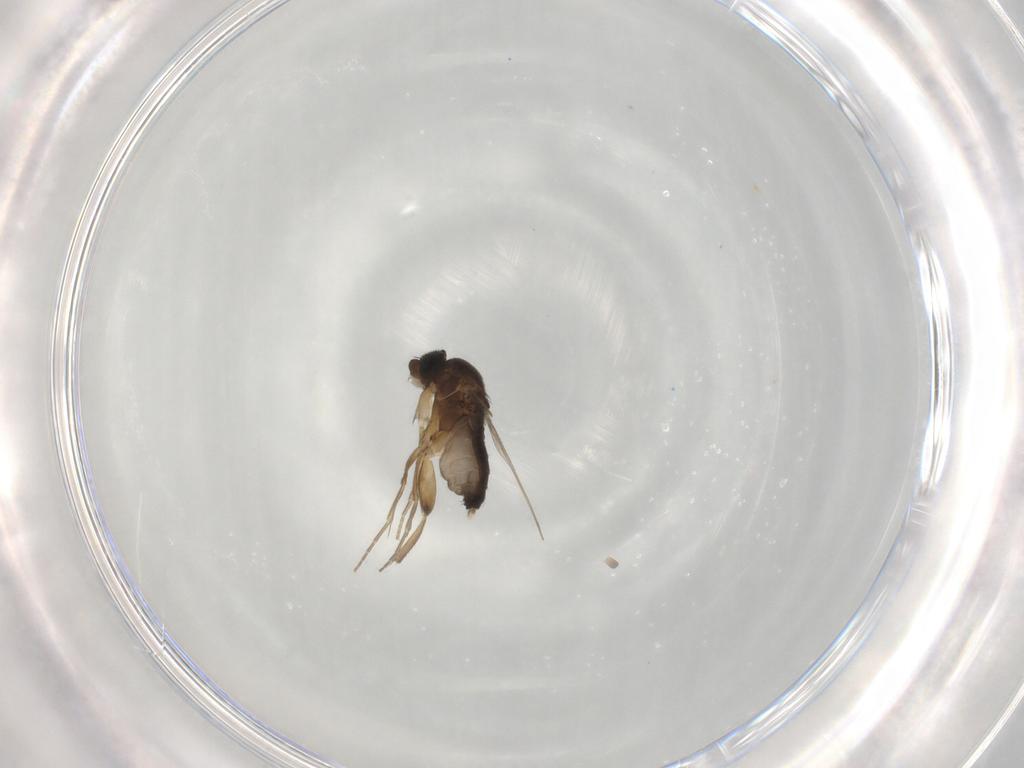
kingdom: Animalia
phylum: Arthropoda
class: Insecta
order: Diptera
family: Phoridae
